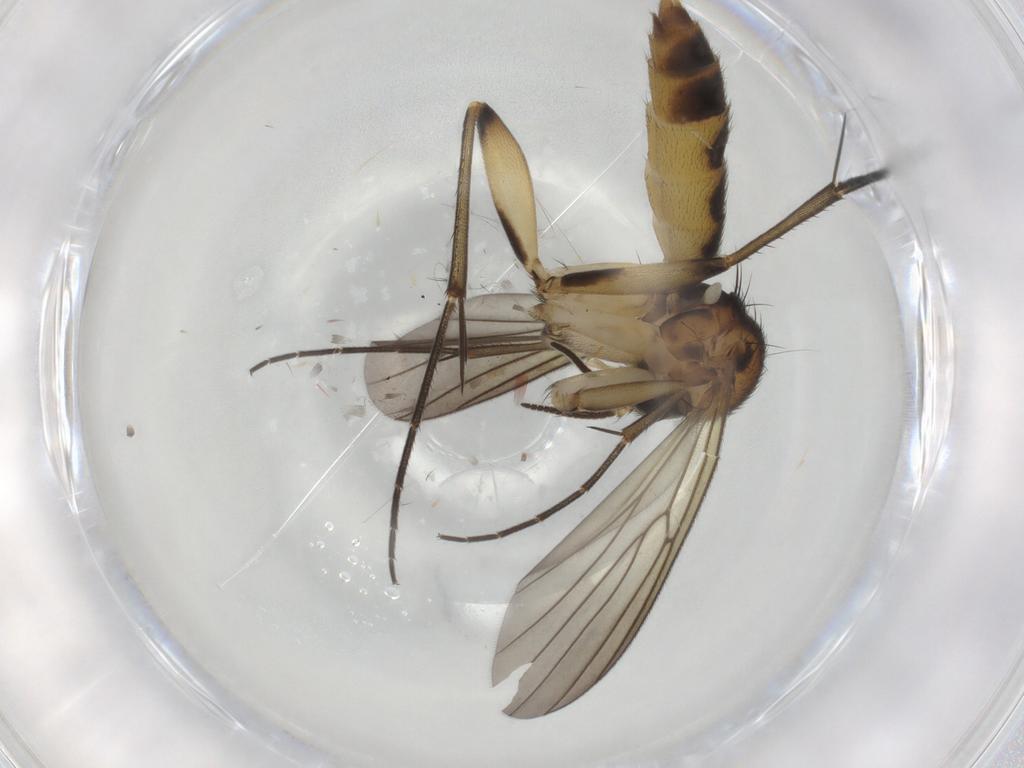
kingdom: Animalia
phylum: Arthropoda
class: Insecta
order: Diptera
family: Mycetophilidae
